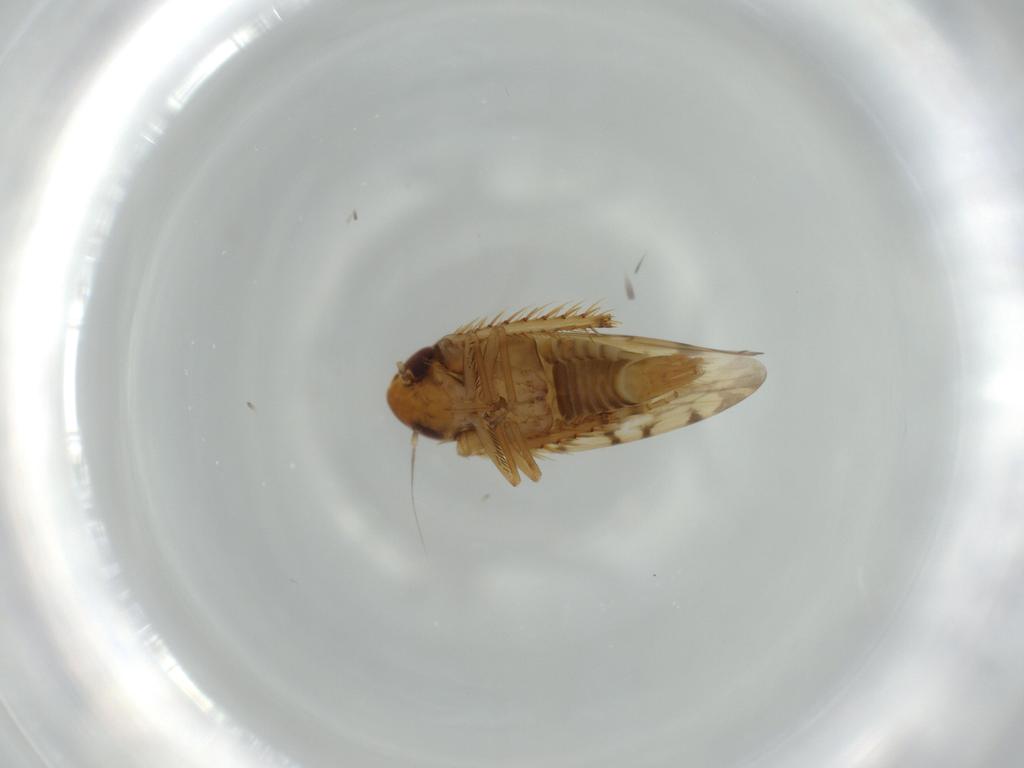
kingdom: Animalia
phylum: Arthropoda
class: Insecta
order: Hemiptera
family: Cicadellidae
